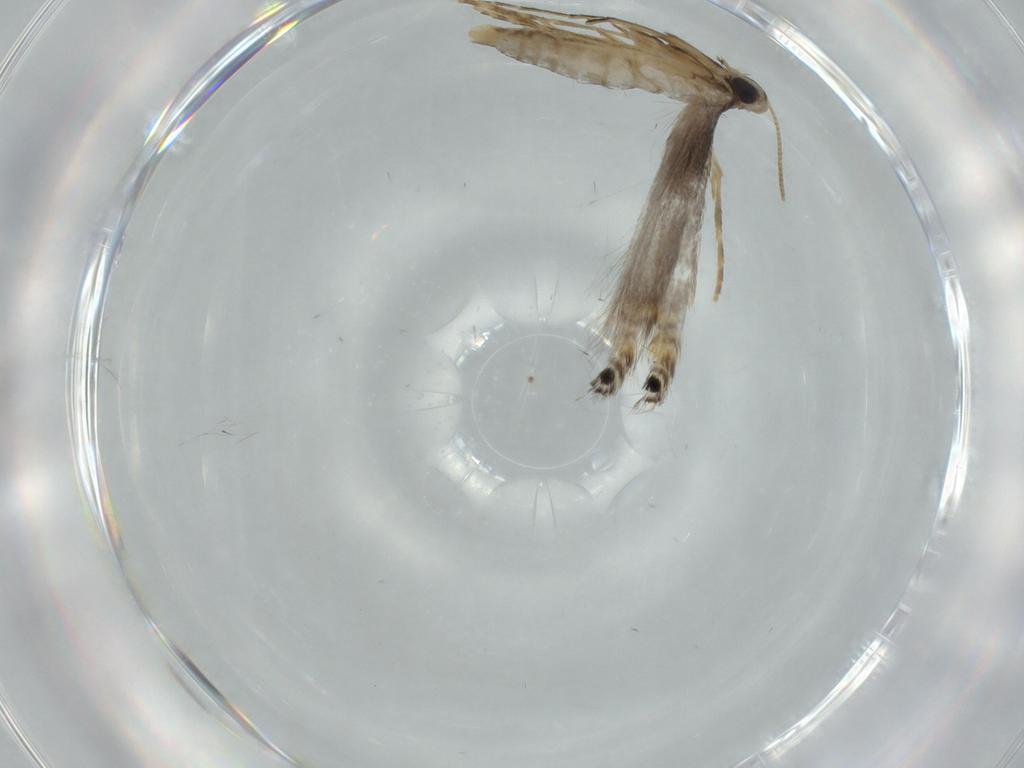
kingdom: Animalia
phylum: Arthropoda
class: Insecta
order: Lepidoptera
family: Gracillariidae
